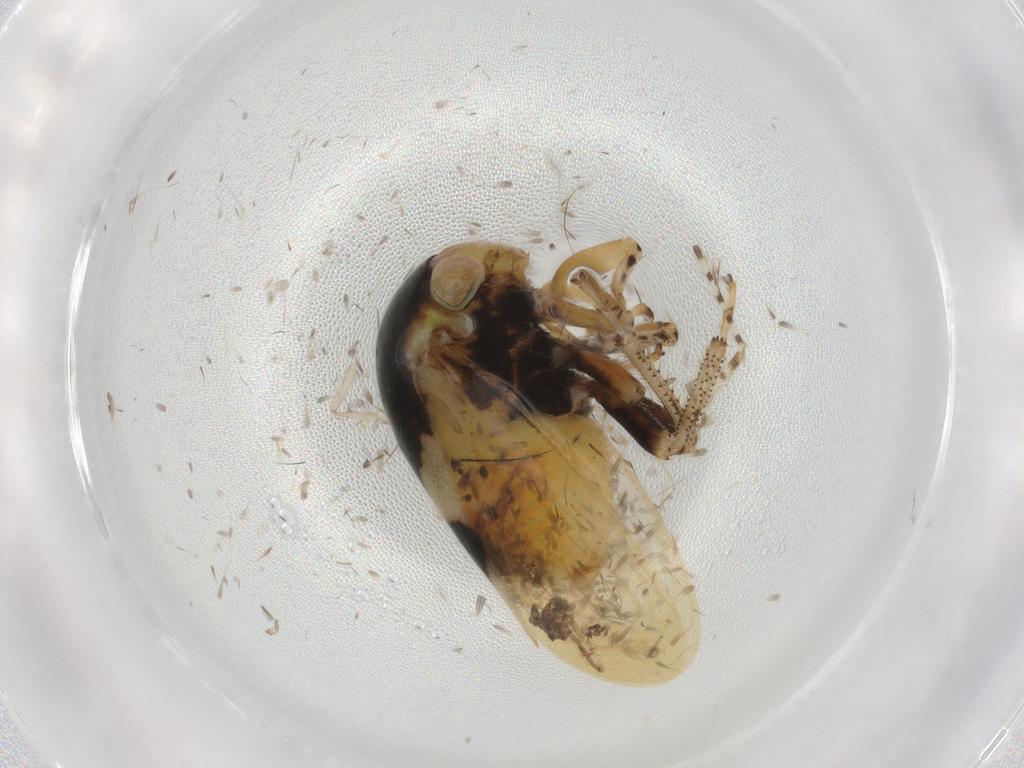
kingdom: Animalia
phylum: Arthropoda
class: Insecta
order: Hemiptera
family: Membracidae
